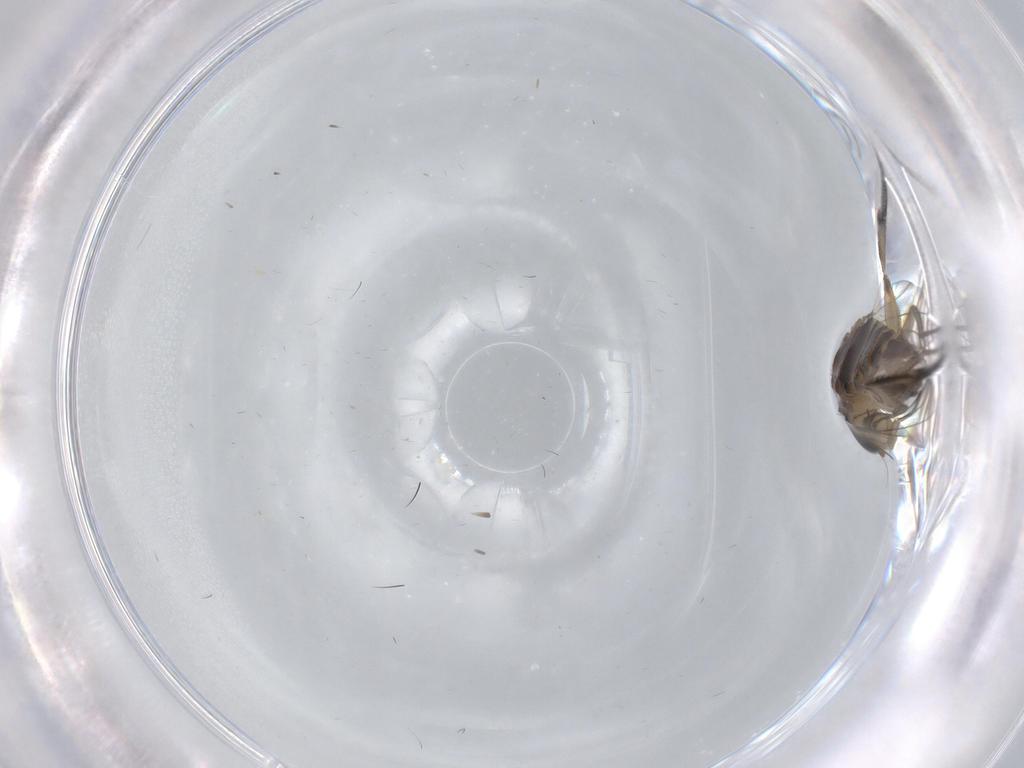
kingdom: Animalia
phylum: Arthropoda
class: Insecta
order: Diptera
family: Phoridae
